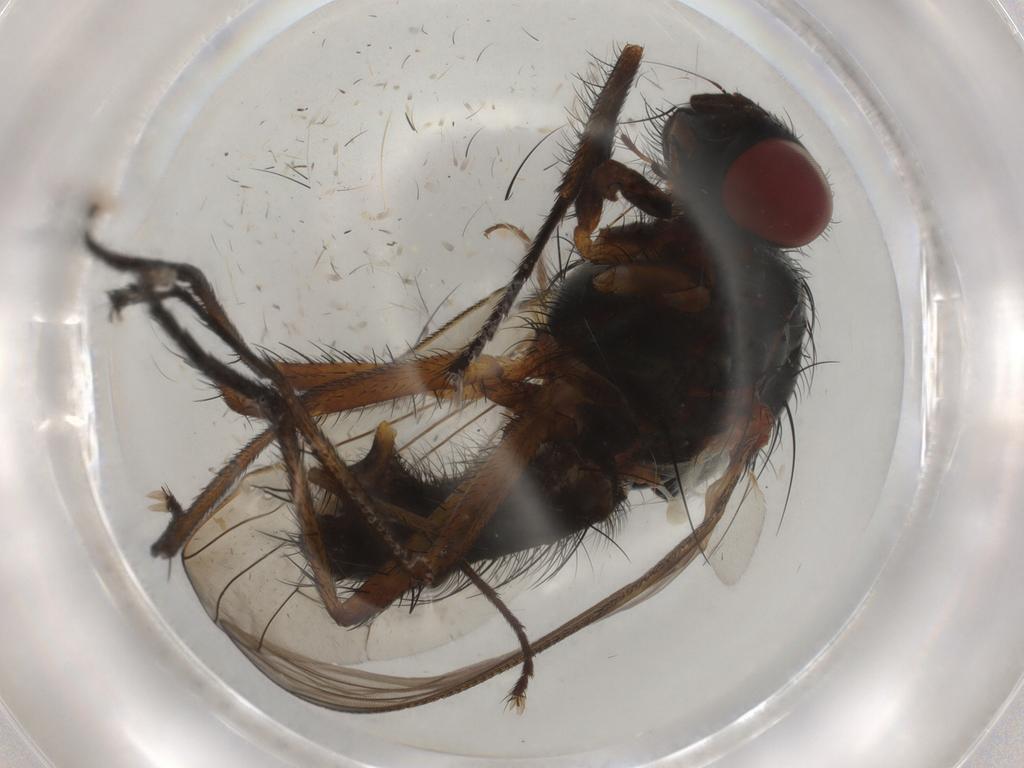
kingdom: Animalia
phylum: Arthropoda
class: Insecta
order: Diptera
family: Anthomyiidae
